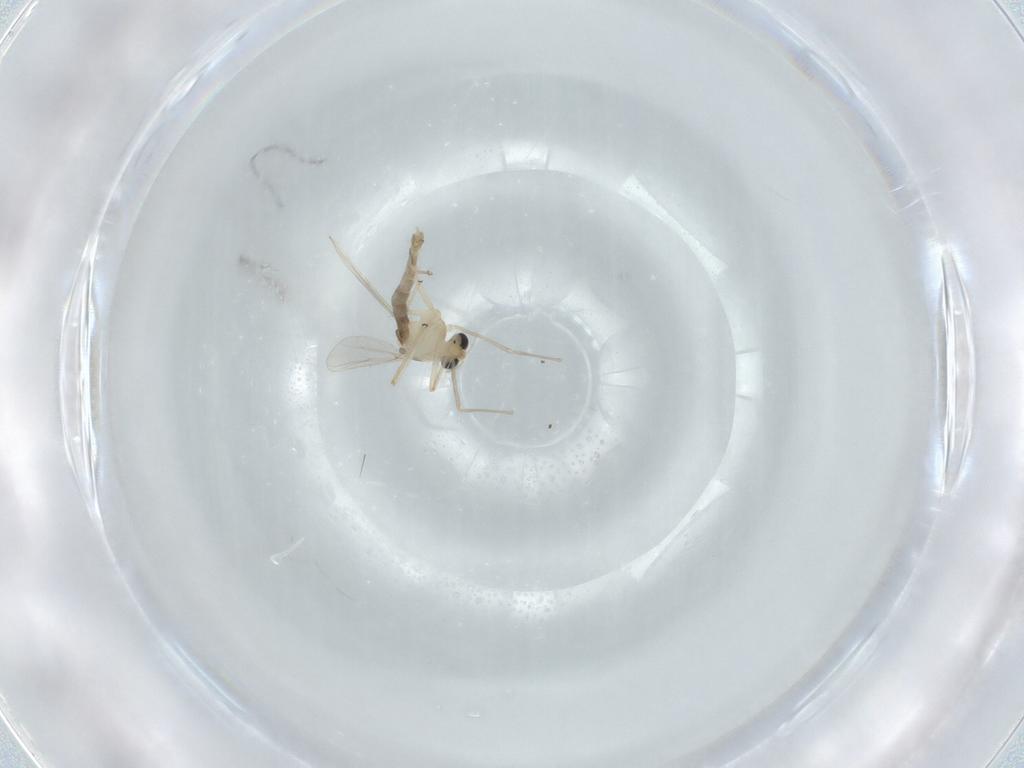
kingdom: Animalia
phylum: Arthropoda
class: Insecta
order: Diptera
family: Chironomidae
